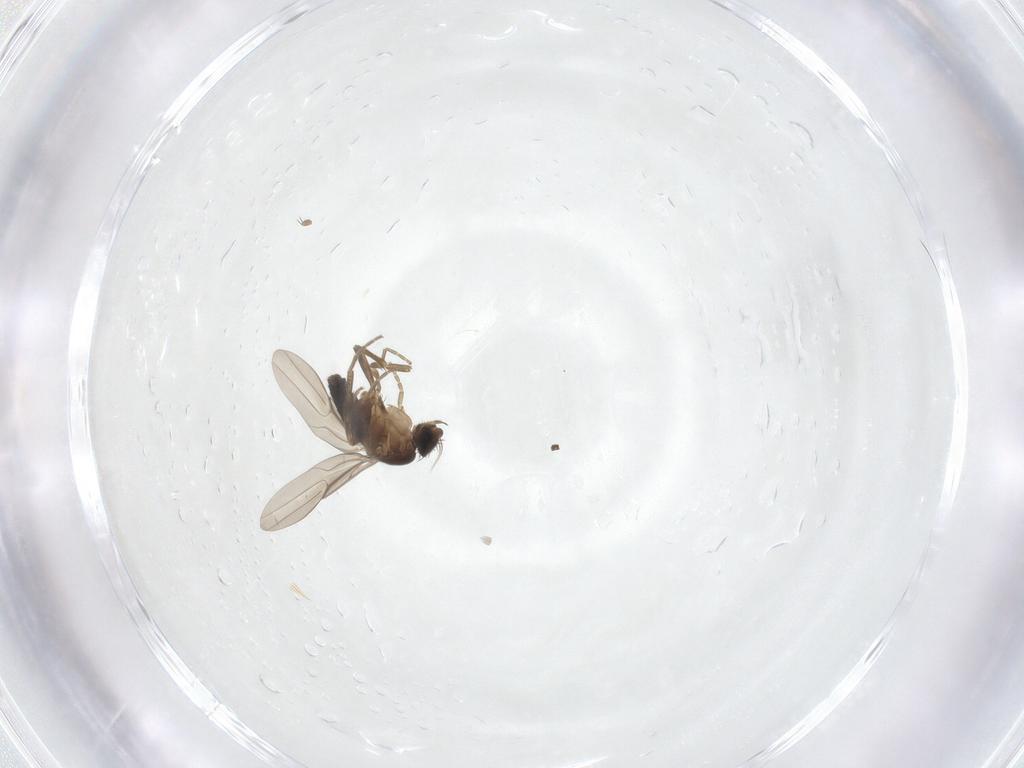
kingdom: Animalia
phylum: Arthropoda
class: Insecta
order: Diptera
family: Phoridae
